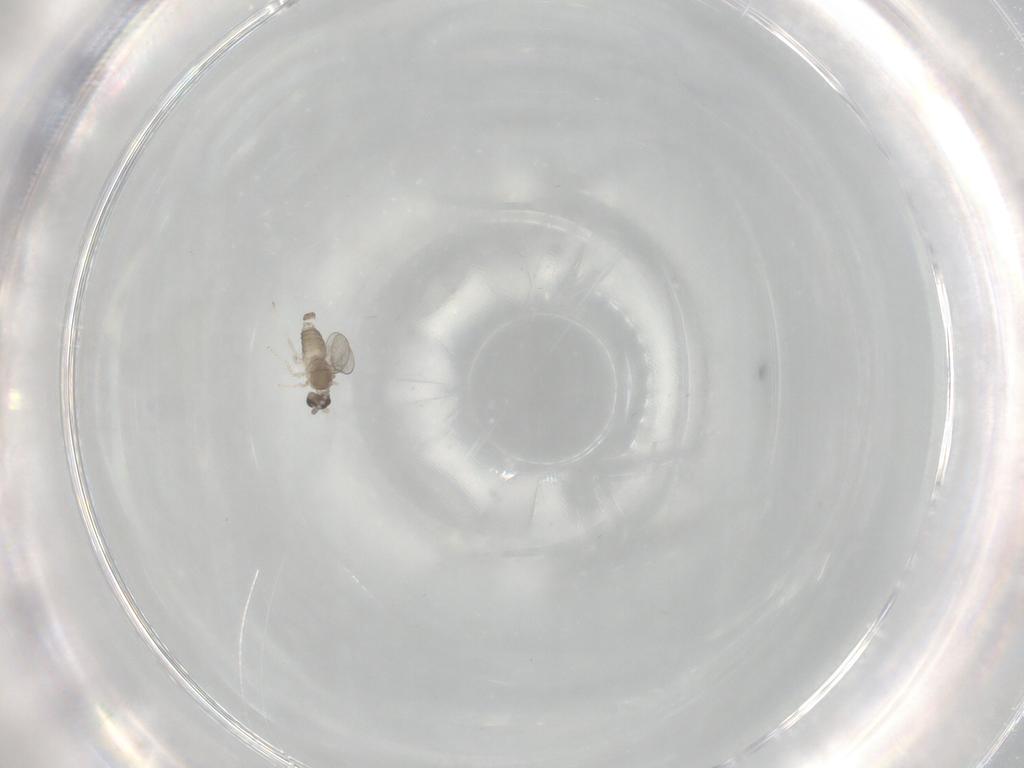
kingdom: Animalia
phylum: Arthropoda
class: Insecta
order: Diptera
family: Cecidomyiidae
